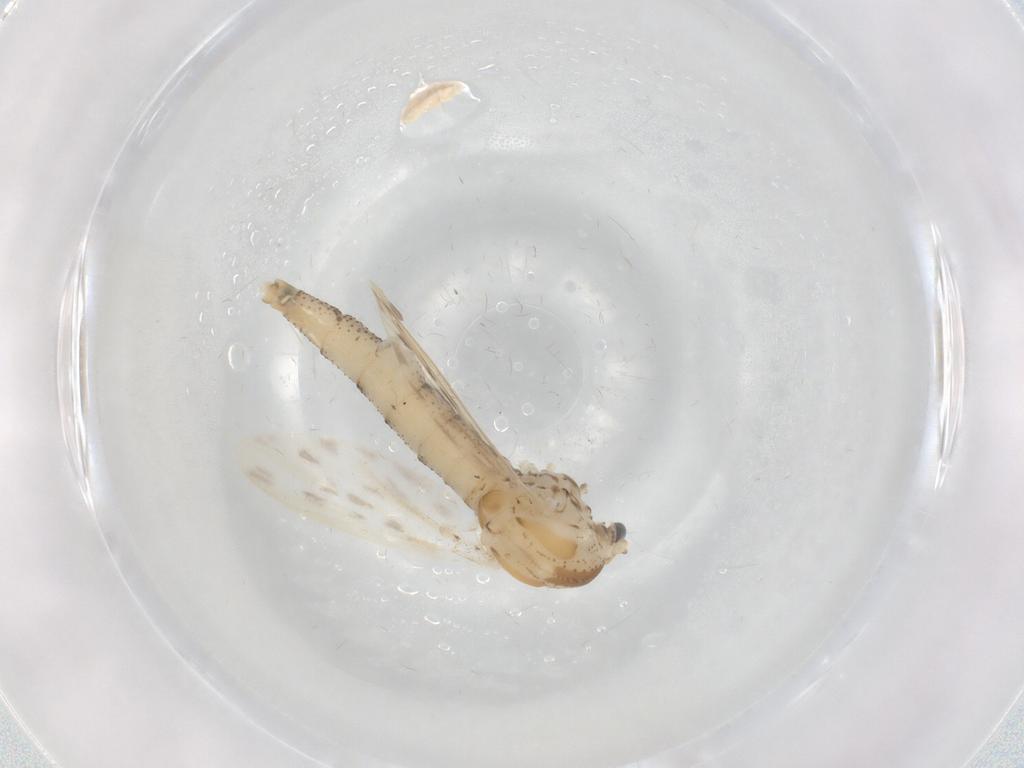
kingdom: Animalia
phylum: Arthropoda
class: Insecta
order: Diptera
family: Chaoboridae
